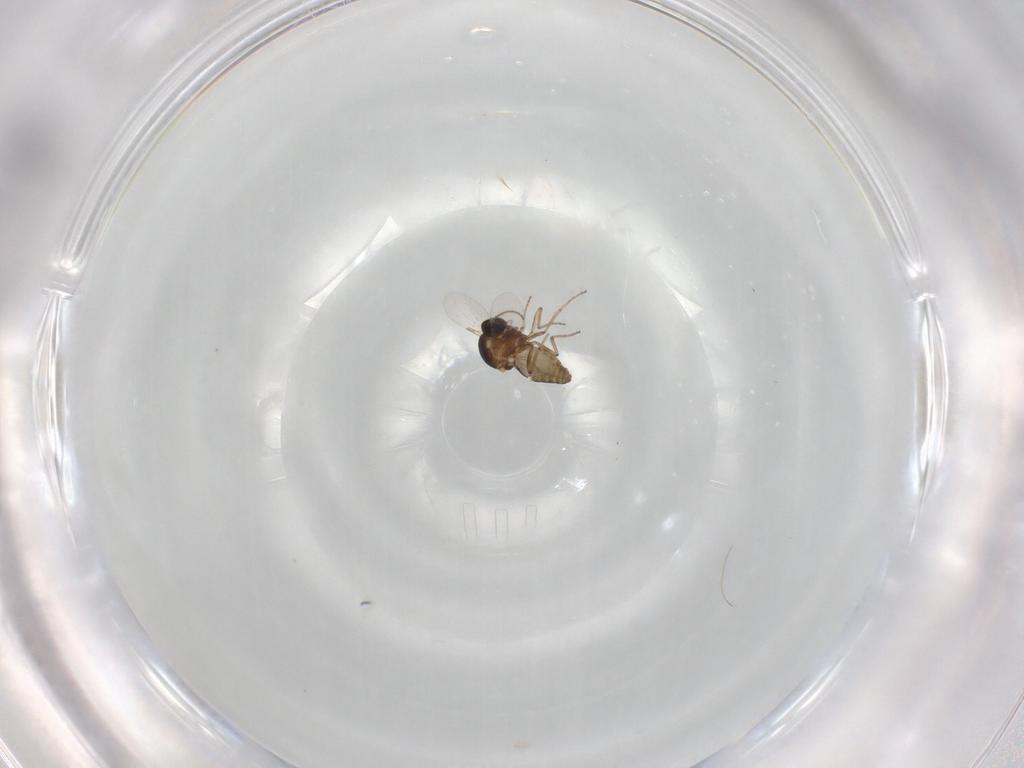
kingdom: Animalia
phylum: Arthropoda
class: Insecta
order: Diptera
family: Ceratopogonidae
